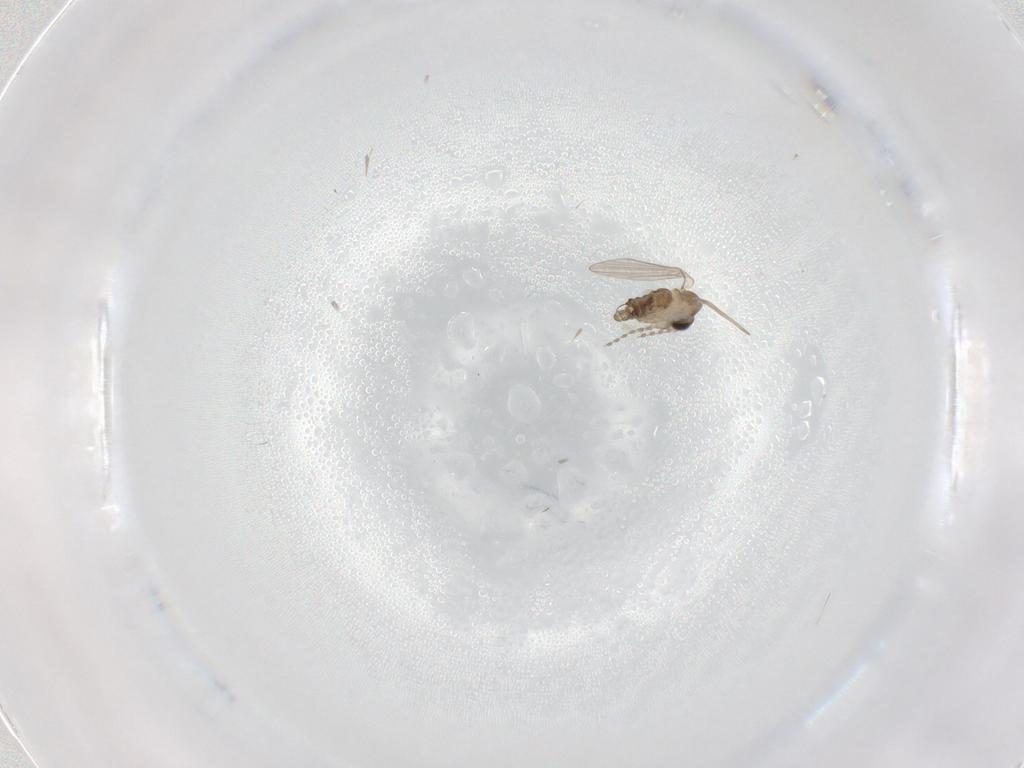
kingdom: Animalia
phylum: Arthropoda
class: Insecta
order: Diptera
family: Psychodidae
